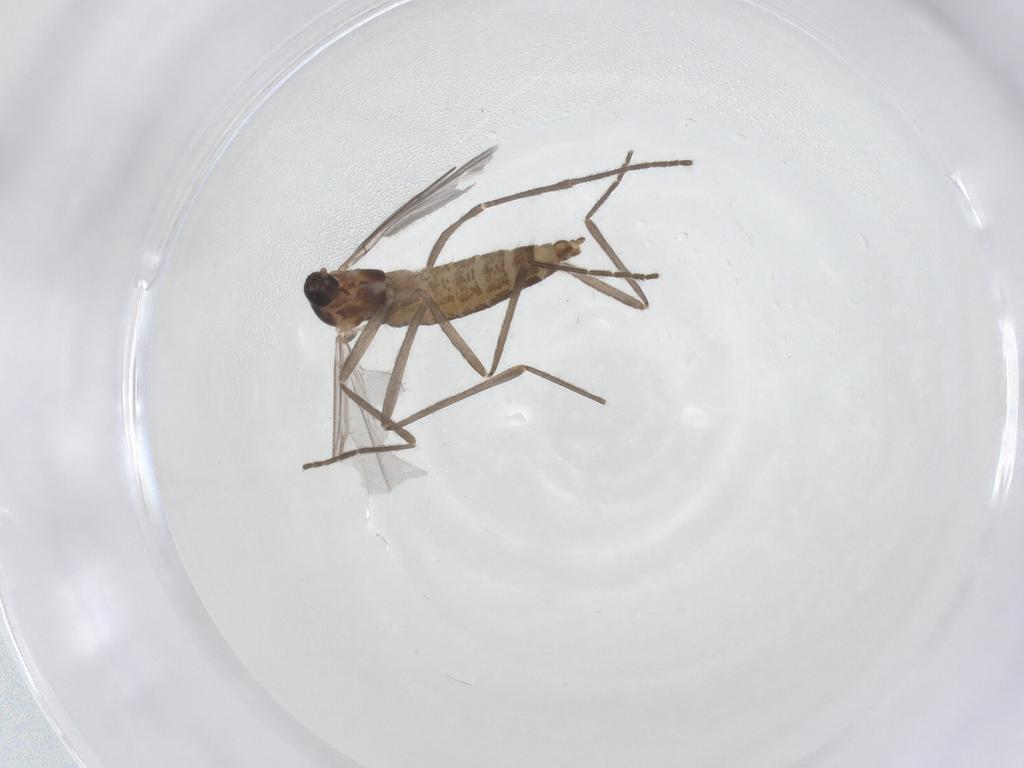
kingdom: Animalia
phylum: Arthropoda
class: Insecta
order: Diptera
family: Cecidomyiidae
